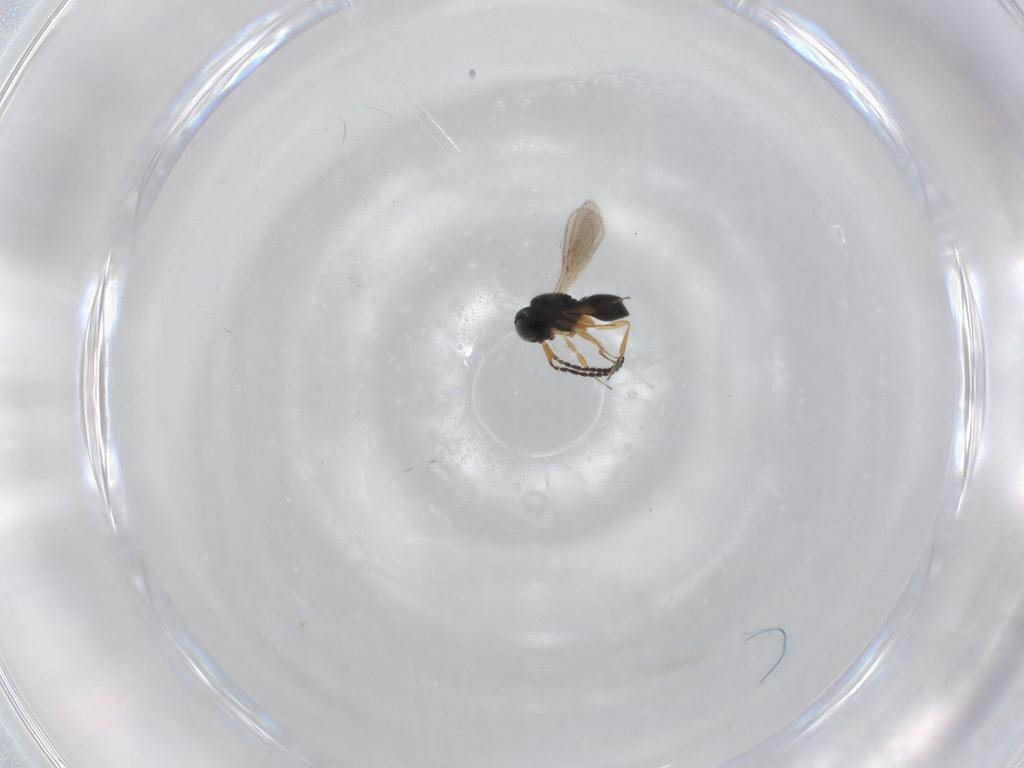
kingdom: Animalia
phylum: Arthropoda
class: Insecta
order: Hymenoptera
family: Scelionidae
